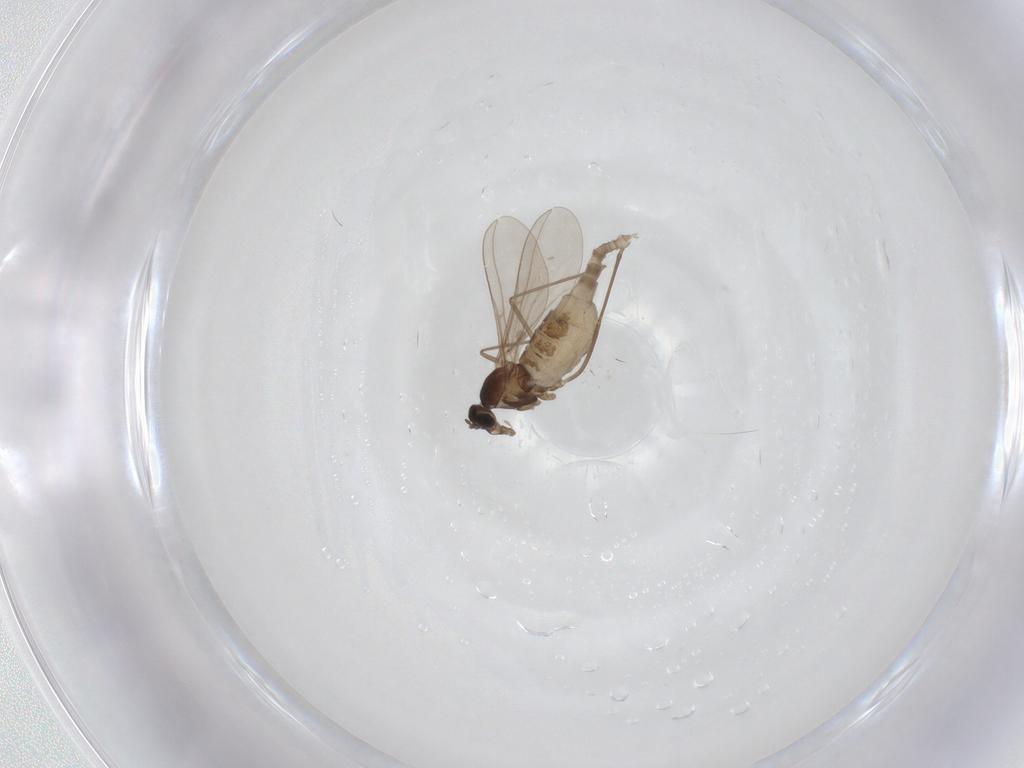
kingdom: Animalia
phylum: Arthropoda
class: Insecta
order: Diptera
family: Cecidomyiidae
